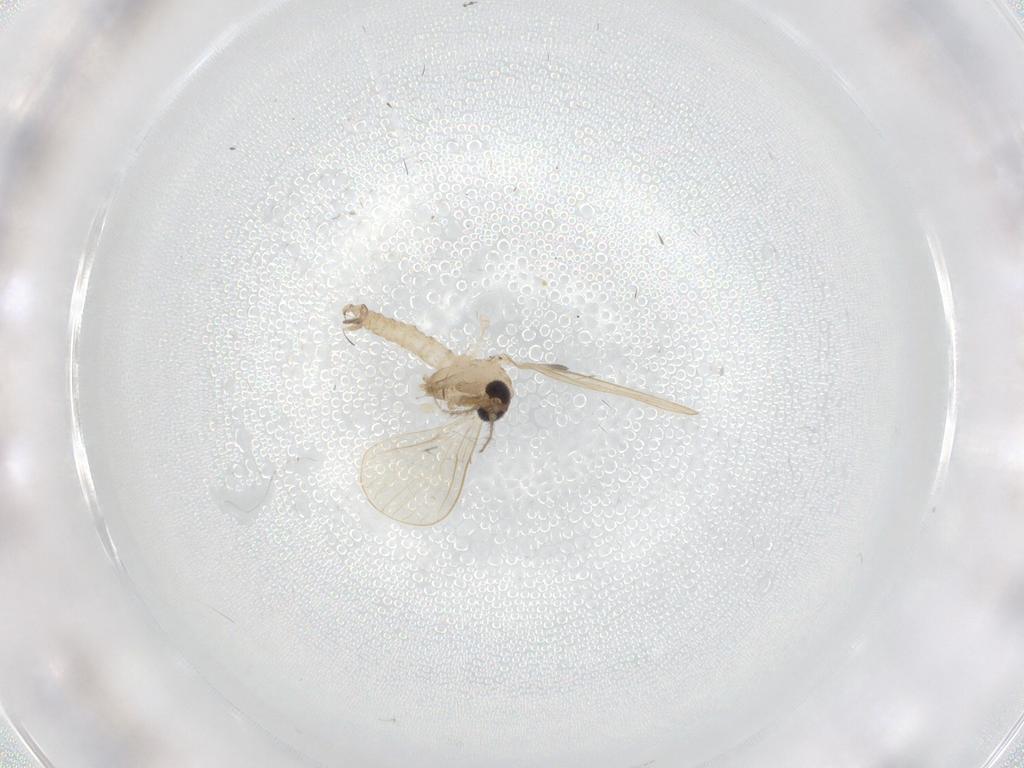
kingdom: Animalia
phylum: Arthropoda
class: Insecta
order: Diptera
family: Psychodidae
